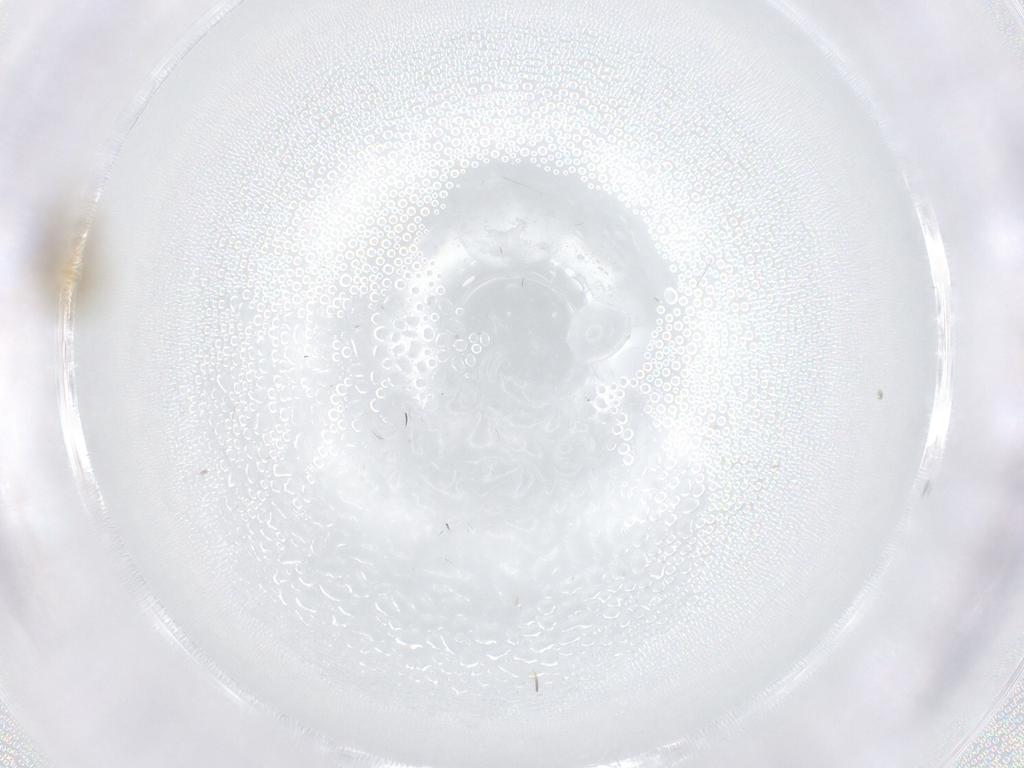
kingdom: Animalia
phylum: Arthropoda
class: Insecta
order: Diptera
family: Ceratopogonidae
